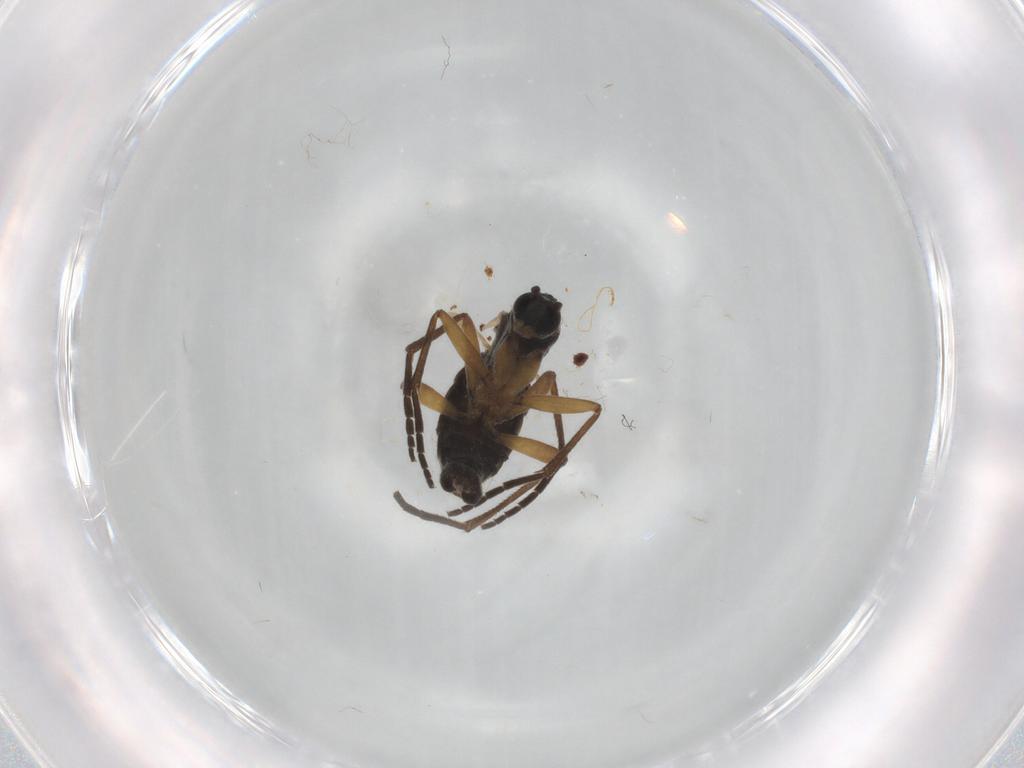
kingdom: Animalia
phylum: Arthropoda
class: Insecta
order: Diptera
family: Sciaridae
